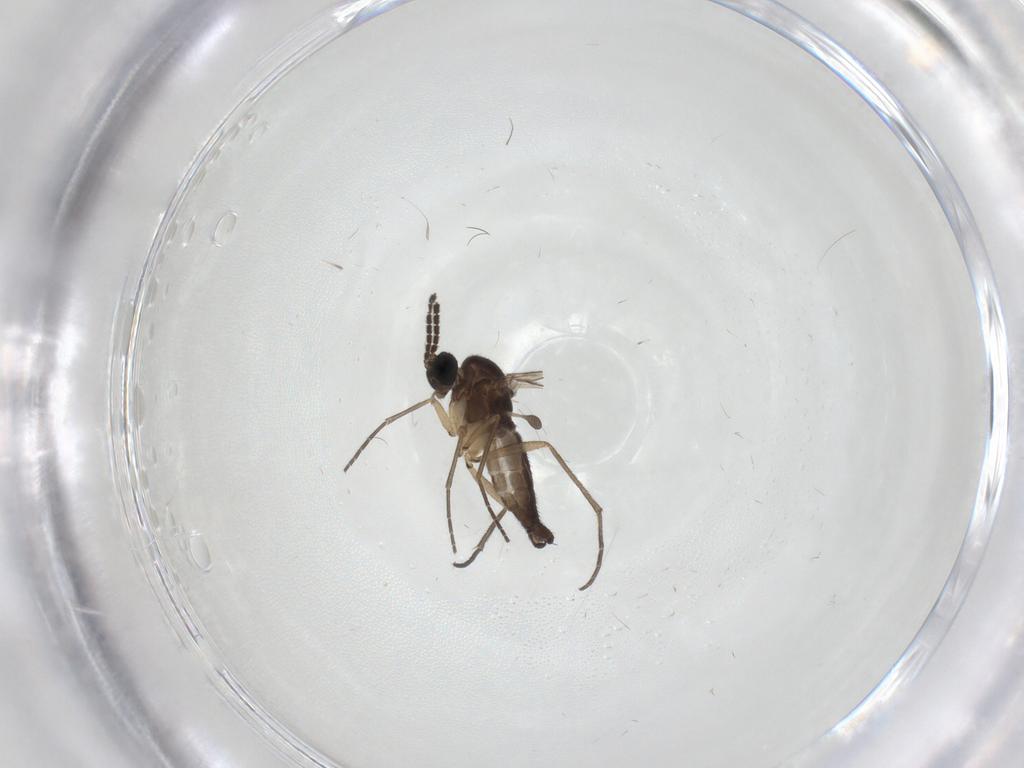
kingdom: Animalia
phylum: Arthropoda
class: Insecta
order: Diptera
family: Sciaridae
